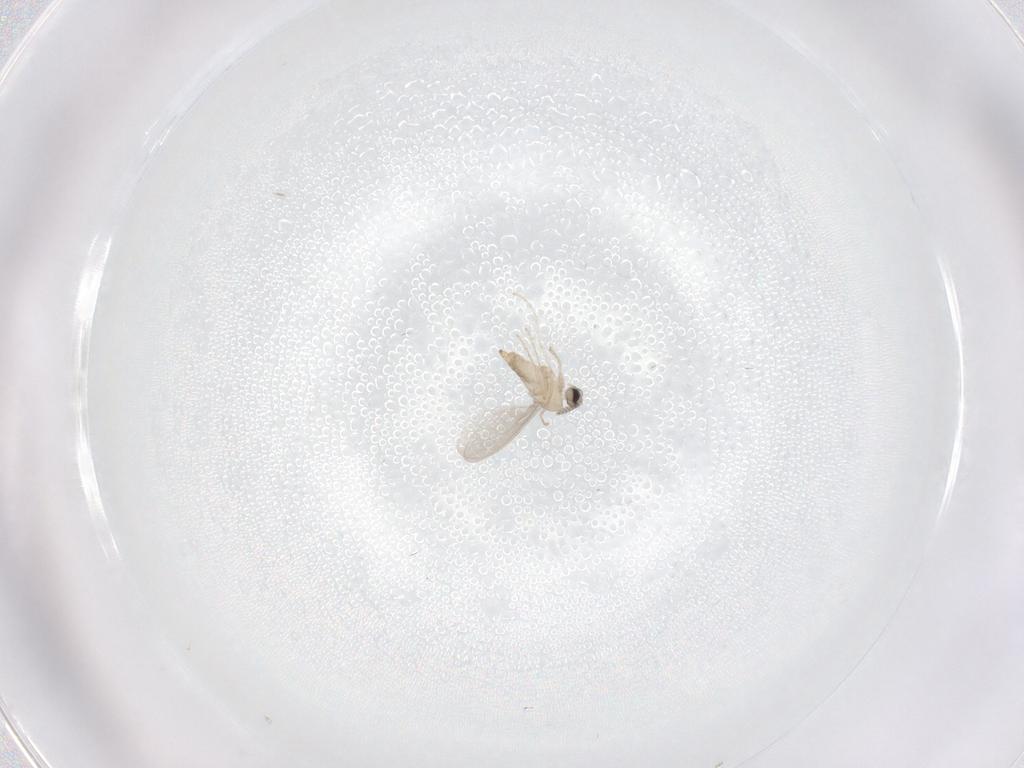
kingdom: Animalia
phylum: Arthropoda
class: Insecta
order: Diptera
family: Cecidomyiidae
